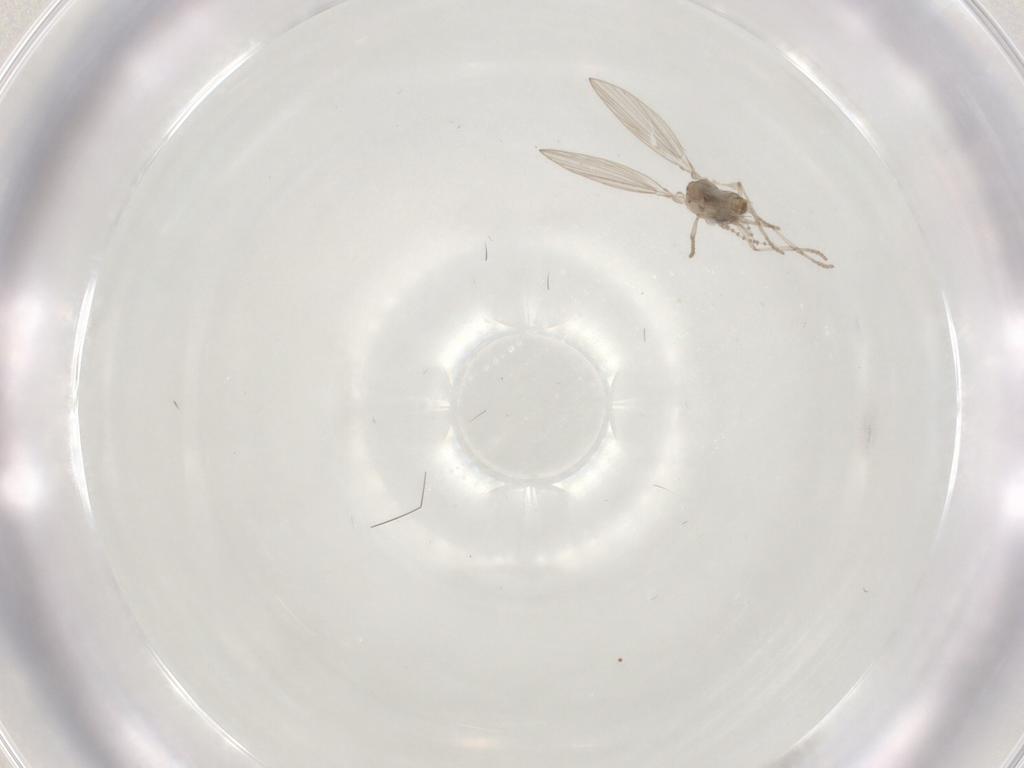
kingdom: Animalia
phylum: Arthropoda
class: Insecta
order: Diptera
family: Psychodidae
